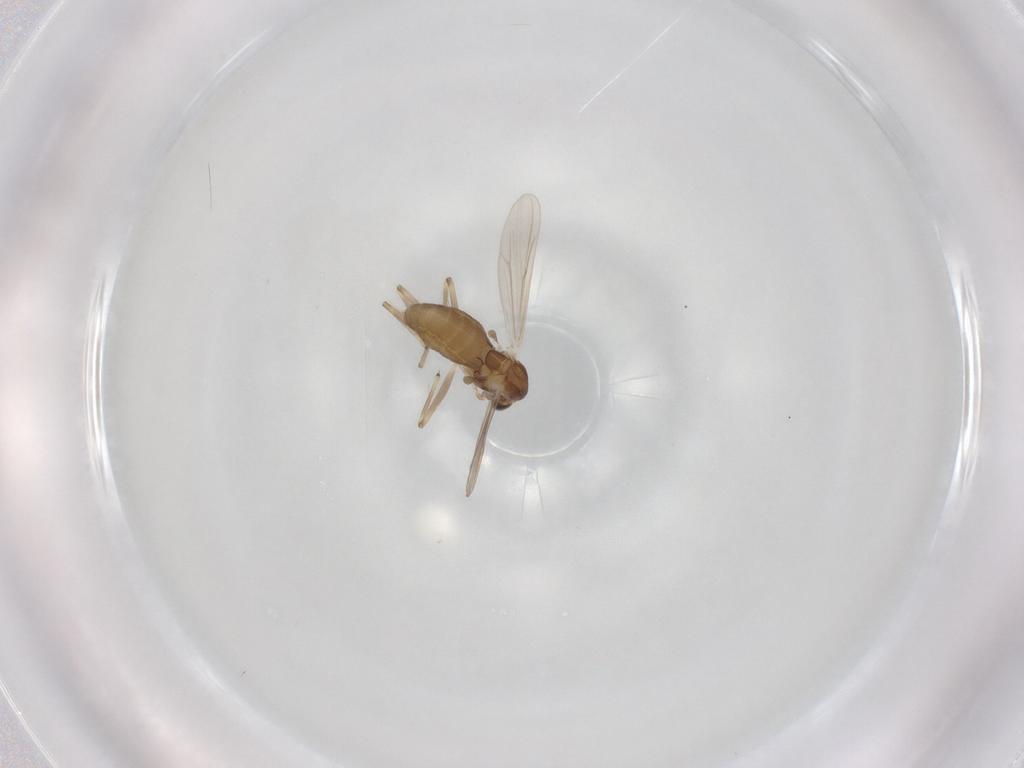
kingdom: Animalia
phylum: Arthropoda
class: Insecta
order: Diptera
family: Chironomidae
